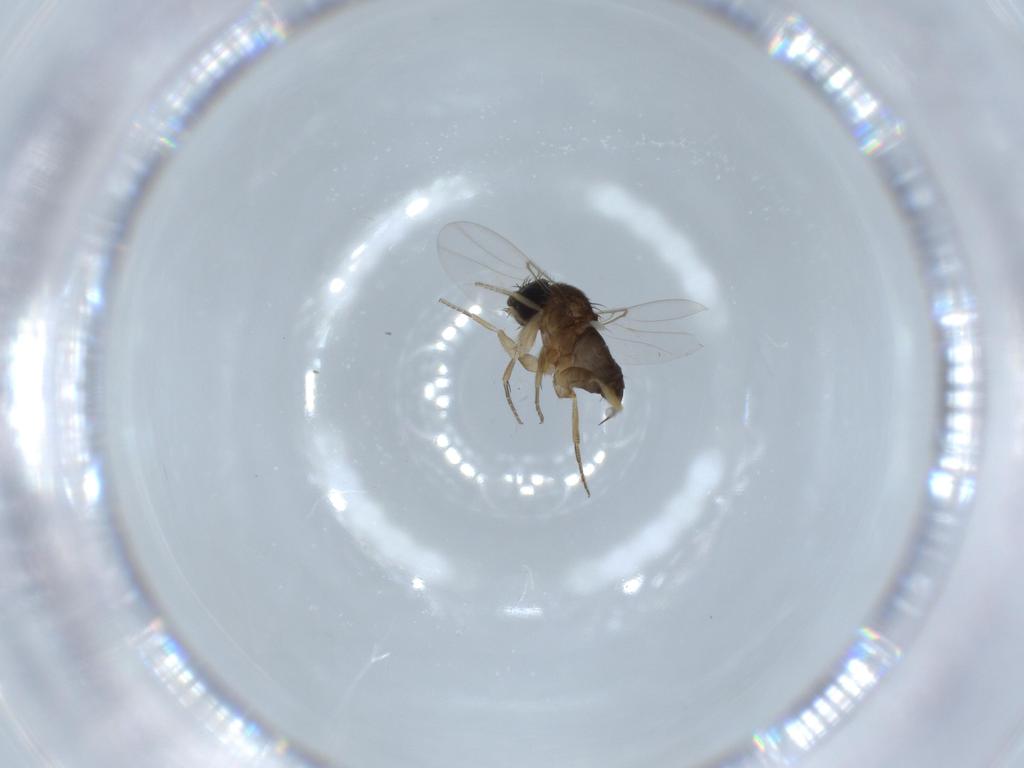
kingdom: Animalia
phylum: Arthropoda
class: Insecta
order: Diptera
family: Phoridae
